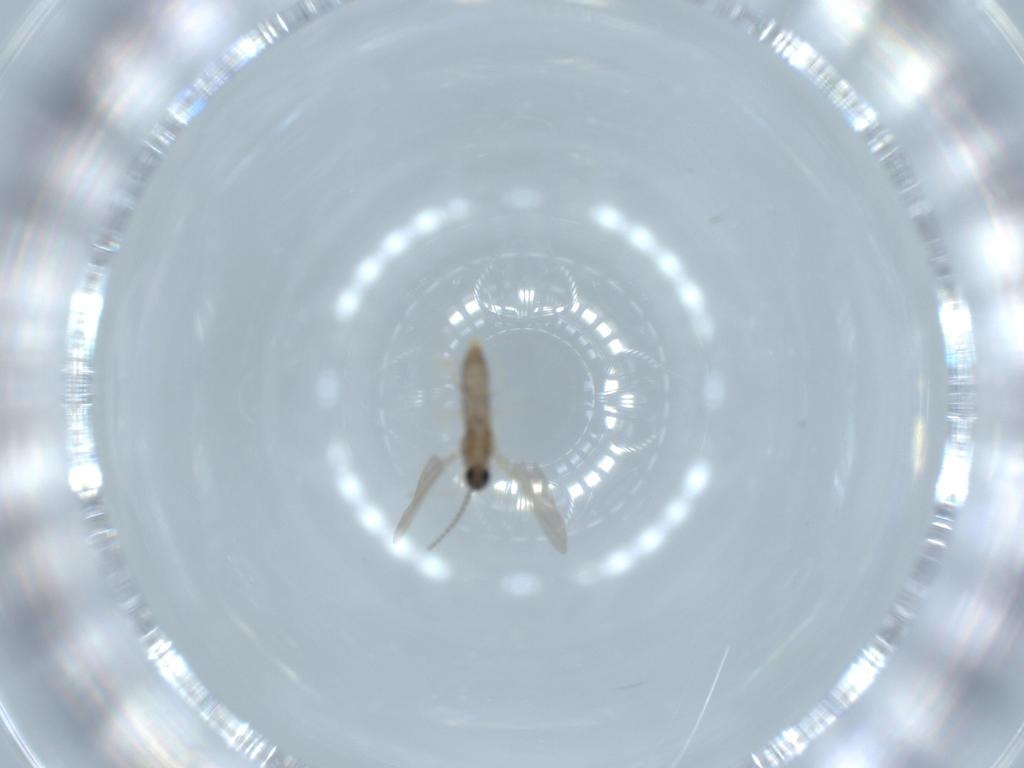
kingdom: Animalia
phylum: Arthropoda
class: Insecta
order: Diptera
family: Cecidomyiidae
